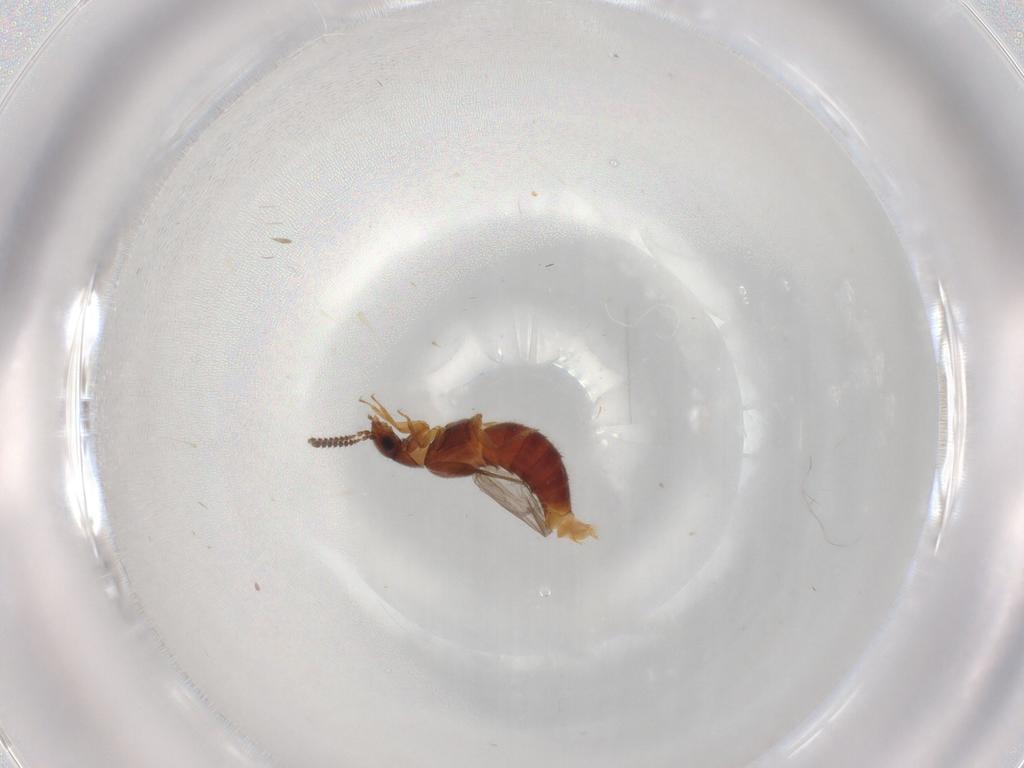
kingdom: Animalia
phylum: Arthropoda
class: Insecta
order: Coleoptera
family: Staphylinidae
